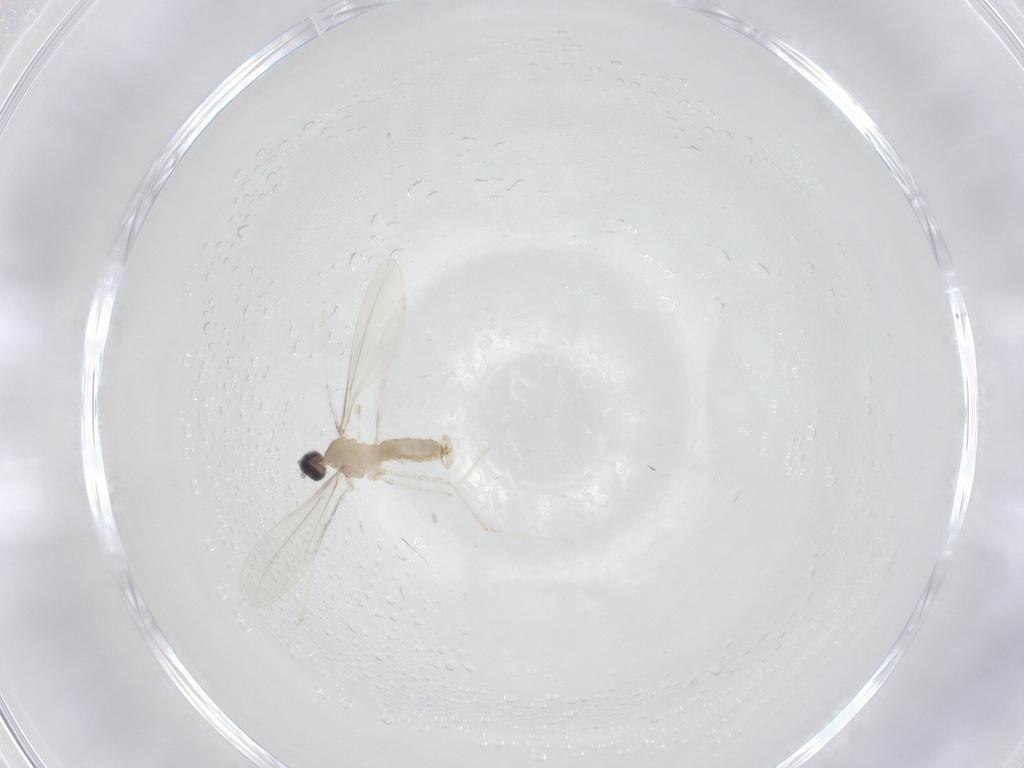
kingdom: Animalia
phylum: Arthropoda
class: Insecta
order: Diptera
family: Cecidomyiidae
